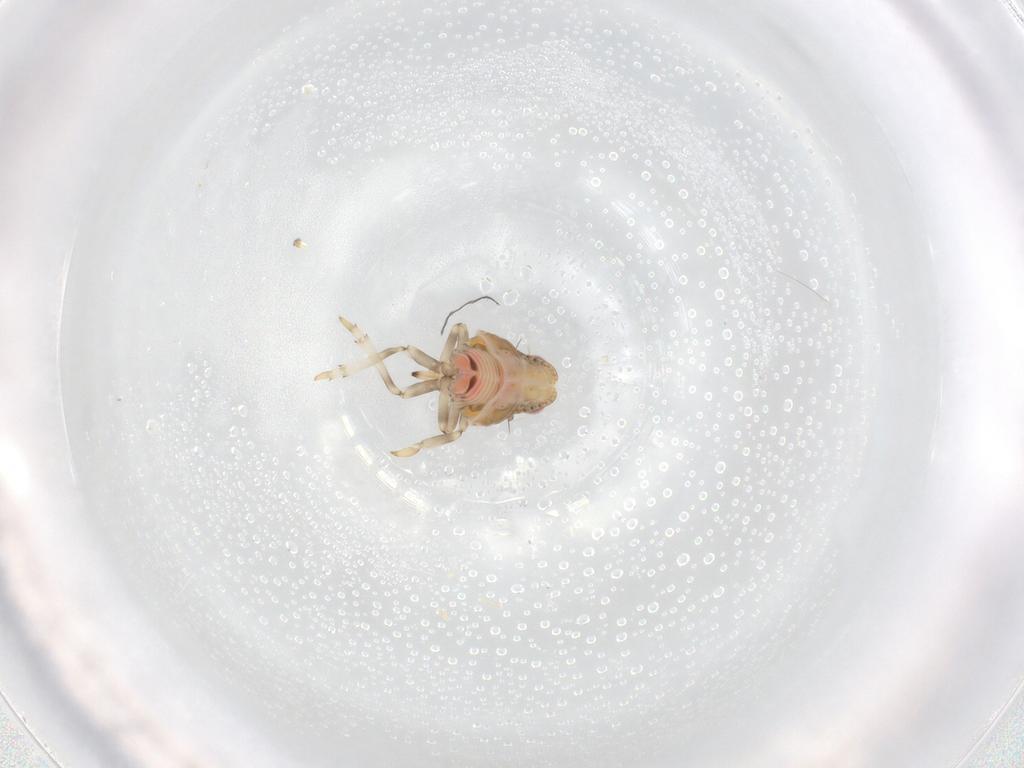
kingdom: Animalia
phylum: Arthropoda
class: Insecta
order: Hemiptera
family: Nogodinidae
